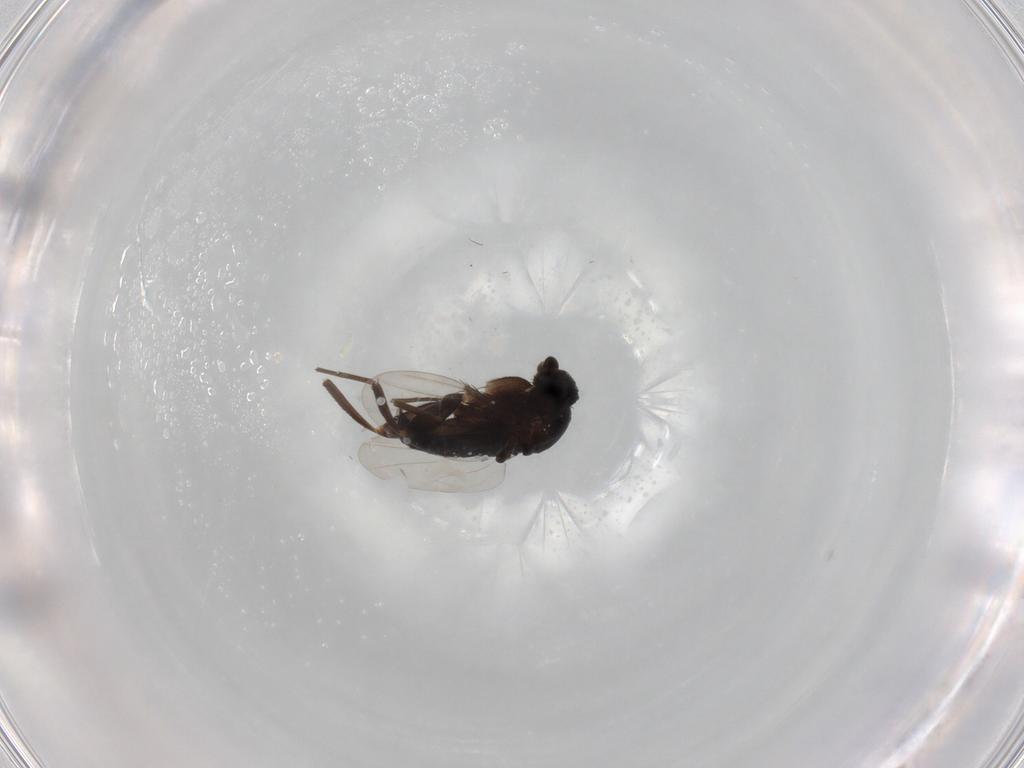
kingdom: Animalia
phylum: Arthropoda
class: Insecta
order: Diptera
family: Phoridae
